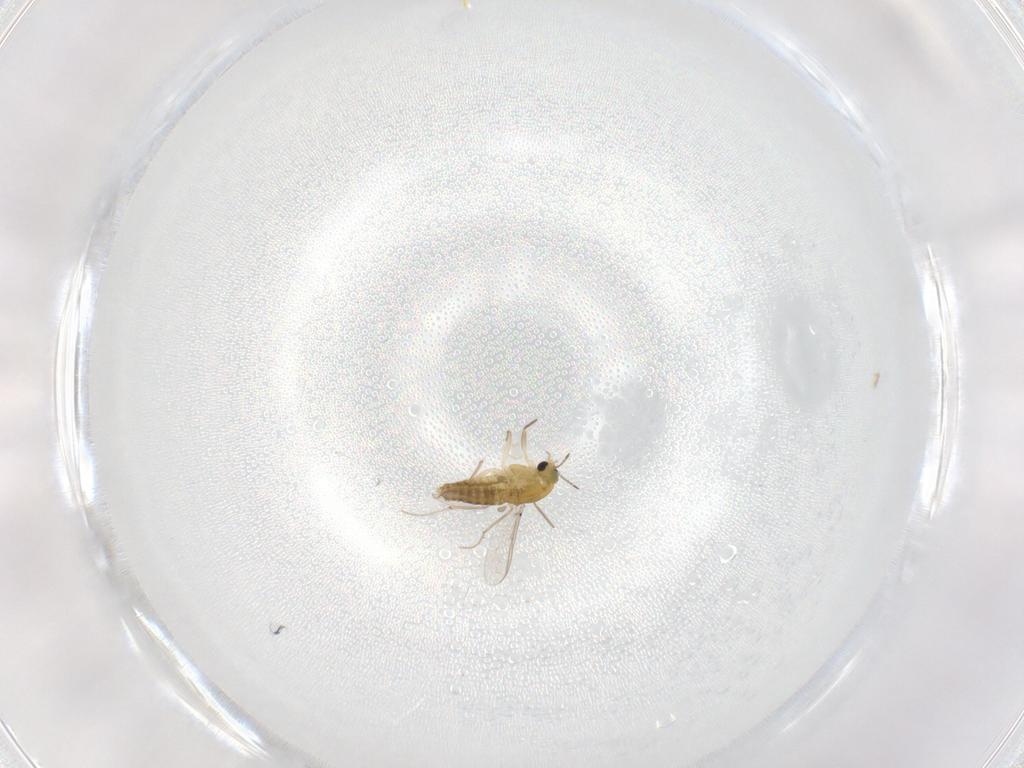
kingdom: Animalia
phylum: Arthropoda
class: Insecta
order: Diptera
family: Chironomidae
